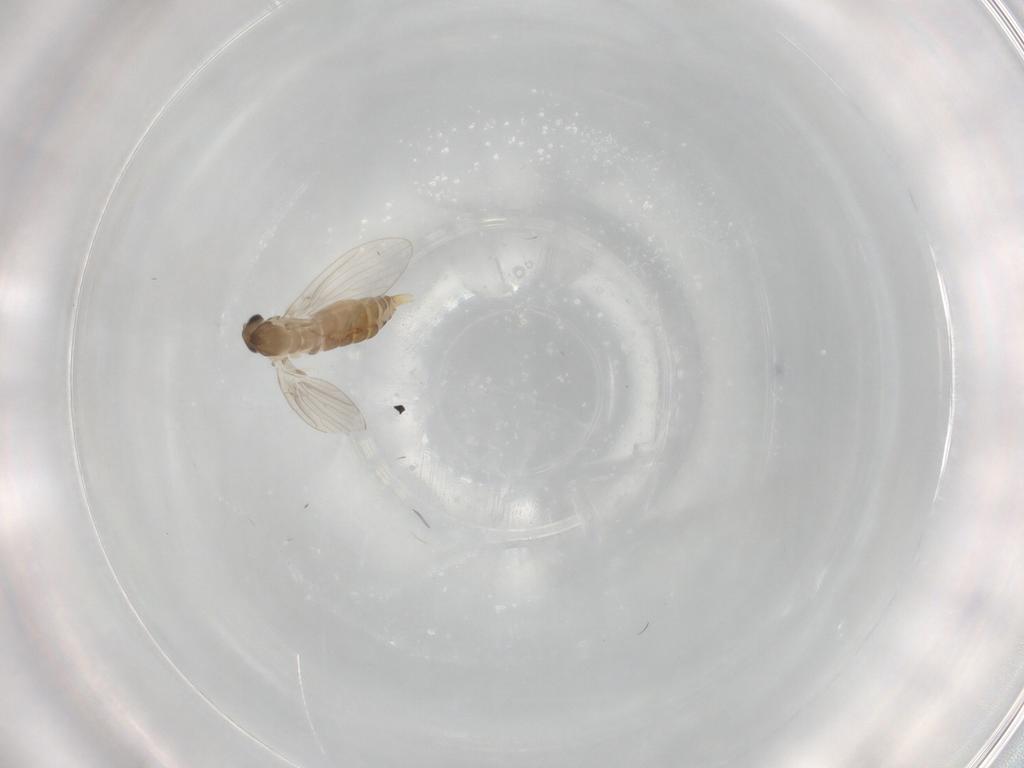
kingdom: Animalia
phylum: Arthropoda
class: Insecta
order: Diptera
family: Psychodidae
